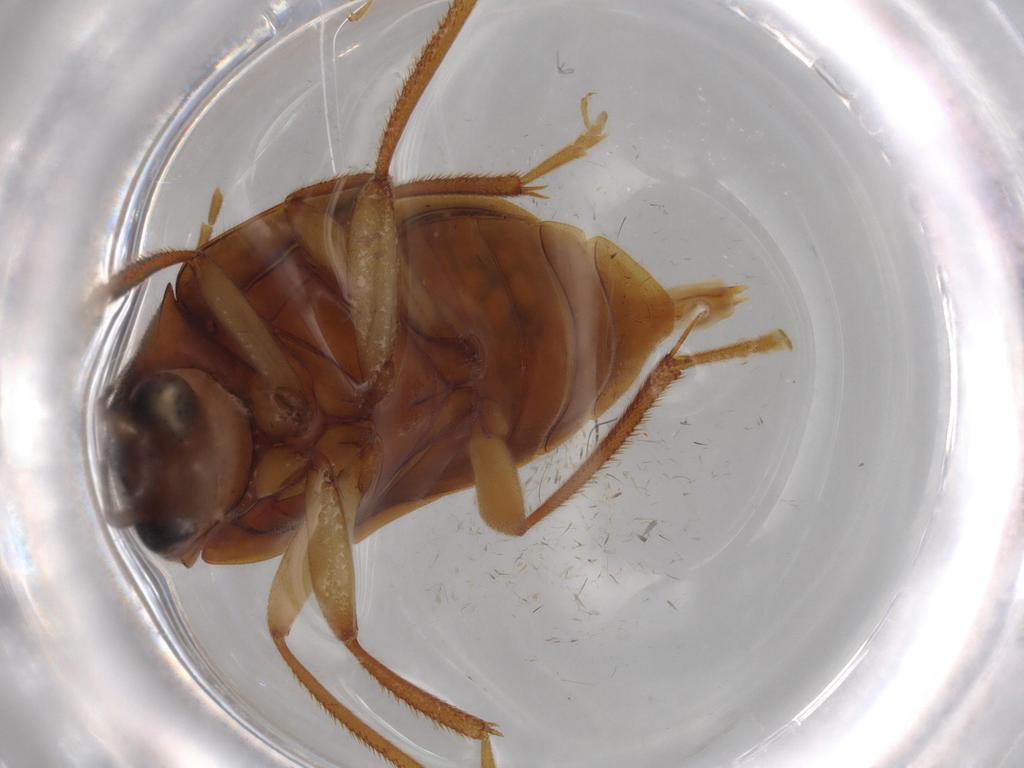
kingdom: Animalia
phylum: Arthropoda
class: Insecta
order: Coleoptera
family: Ptilodactylidae
